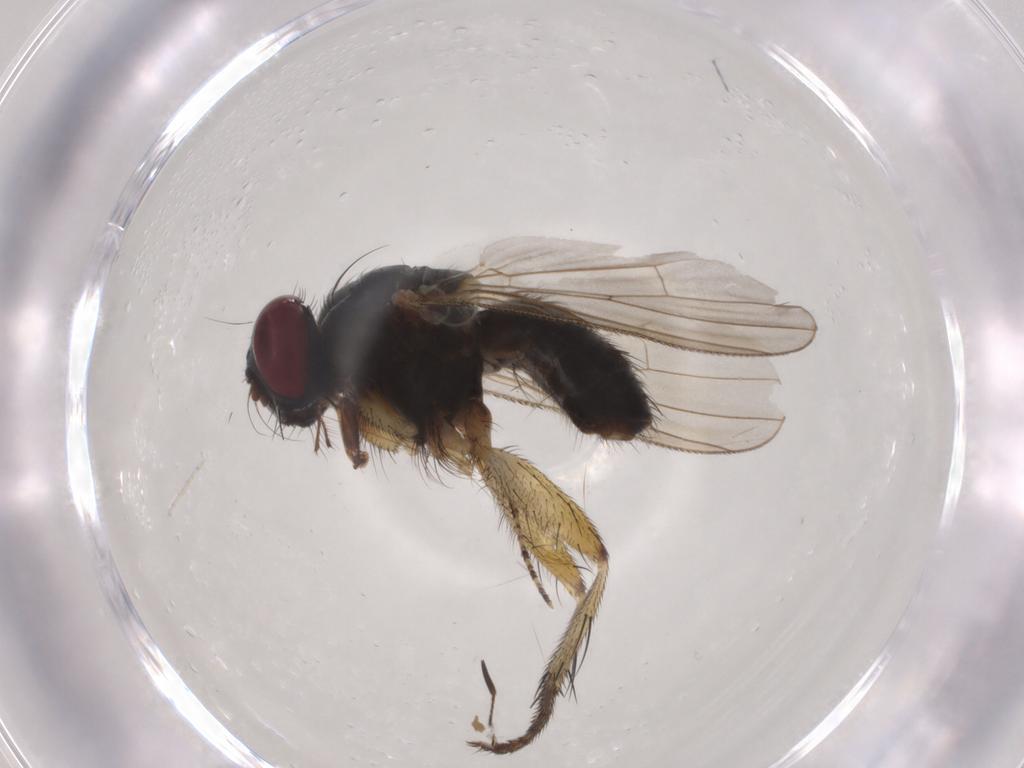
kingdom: Animalia
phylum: Arthropoda
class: Insecta
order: Diptera
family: Muscidae
